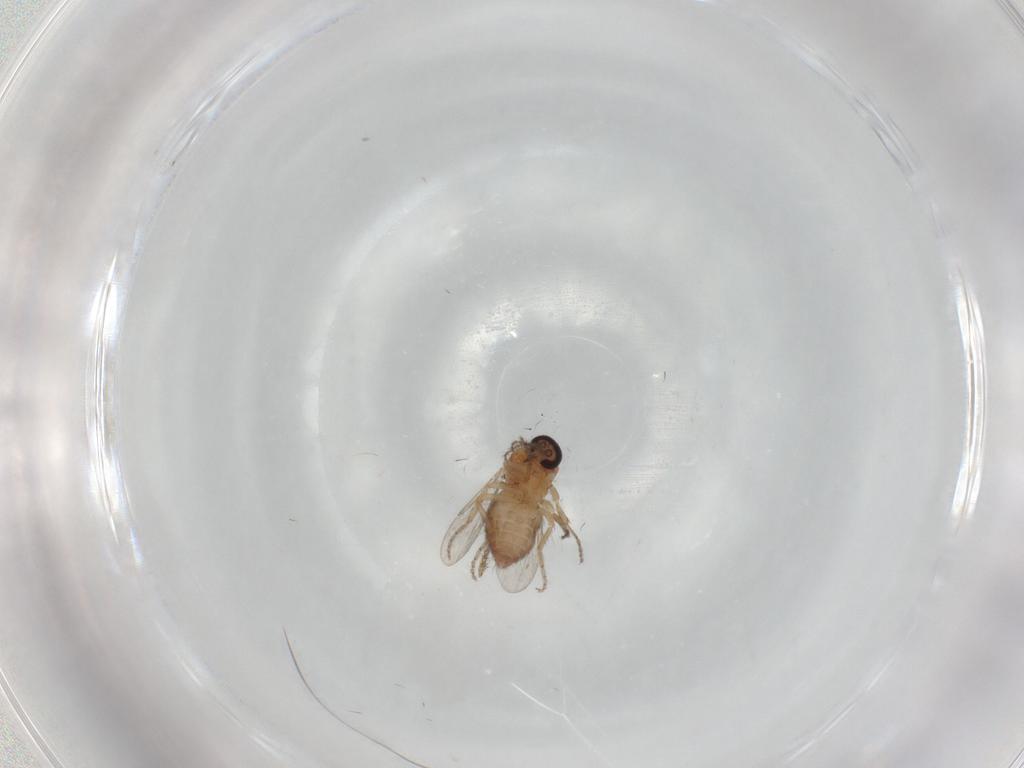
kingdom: Animalia
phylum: Arthropoda
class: Insecta
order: Diptera
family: Ceratopogonidae
